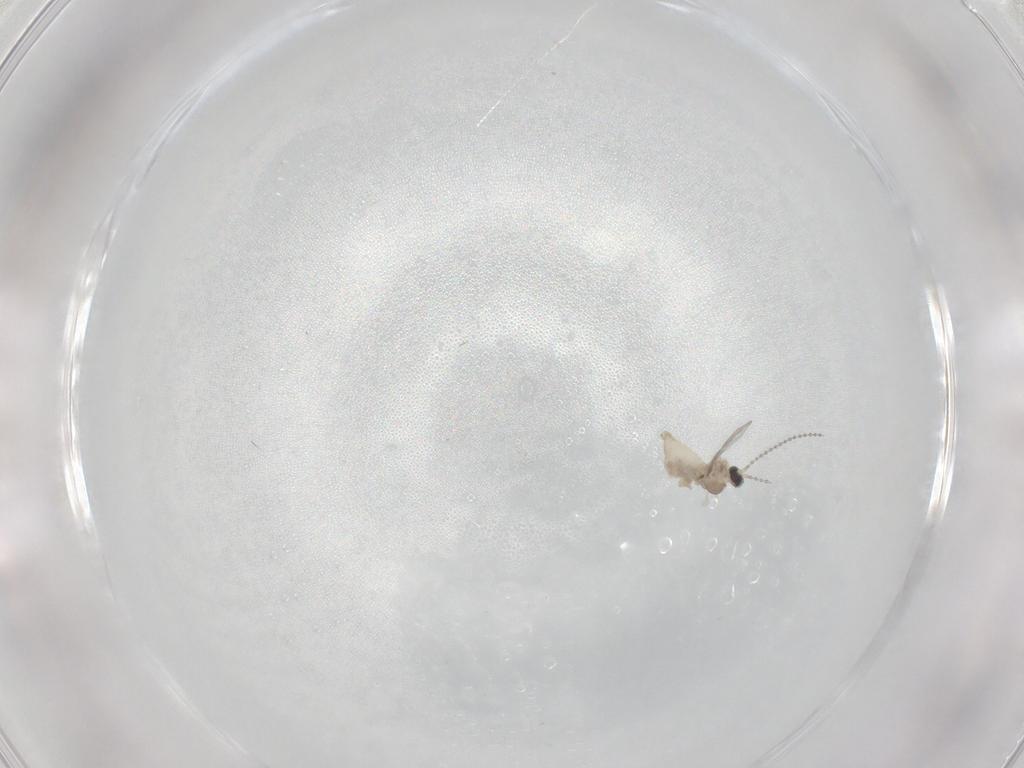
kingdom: Animalia
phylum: Arthropoda
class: Insecta
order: Diptera
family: Cecidomyiidae
